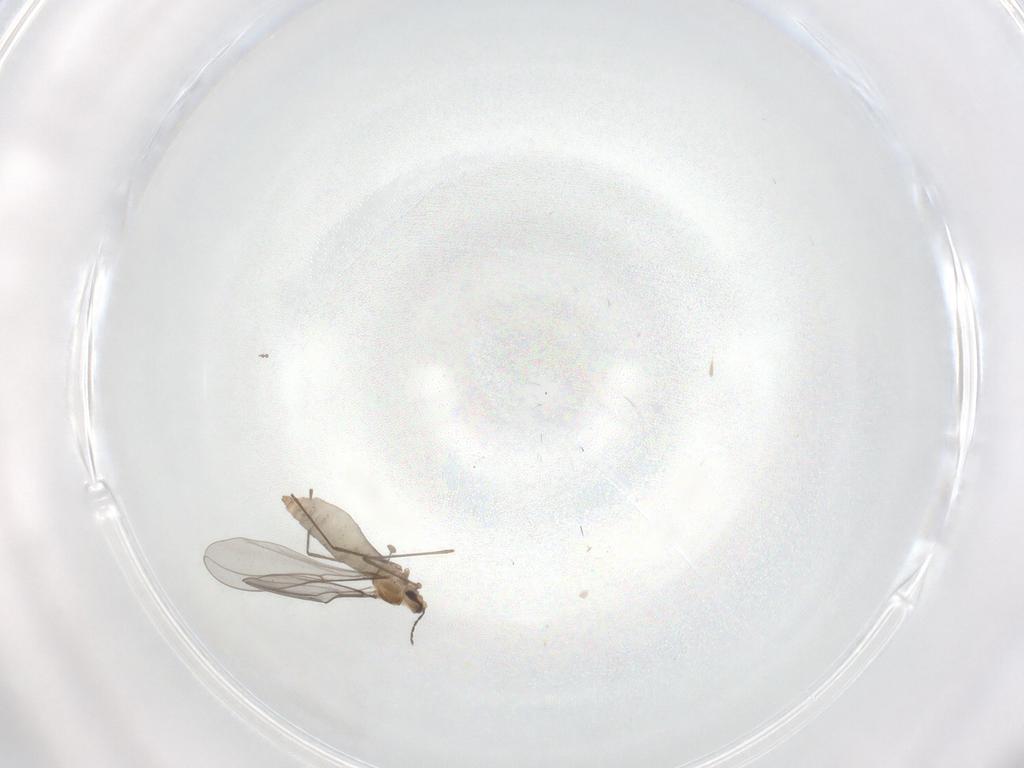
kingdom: Animalia
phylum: Arthropoda
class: Insecta
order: Diptera
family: Cecidomyiidae
